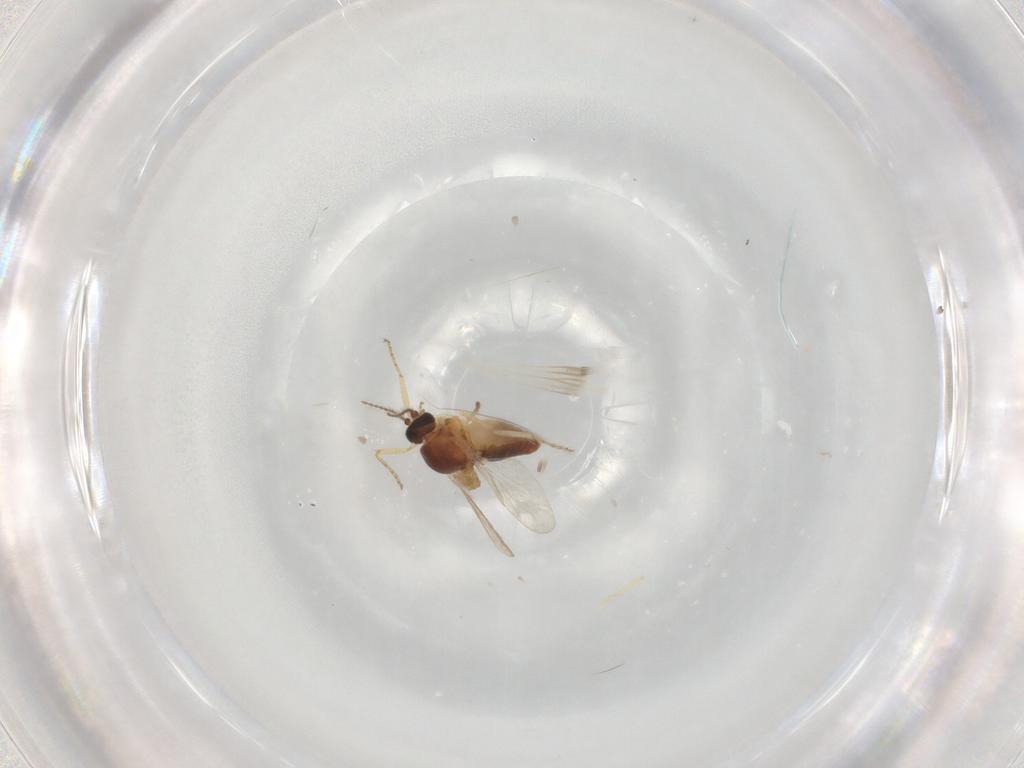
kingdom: Animalia
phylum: Arthropoda
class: Insecta
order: Diptera
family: Ceratopogonidae
